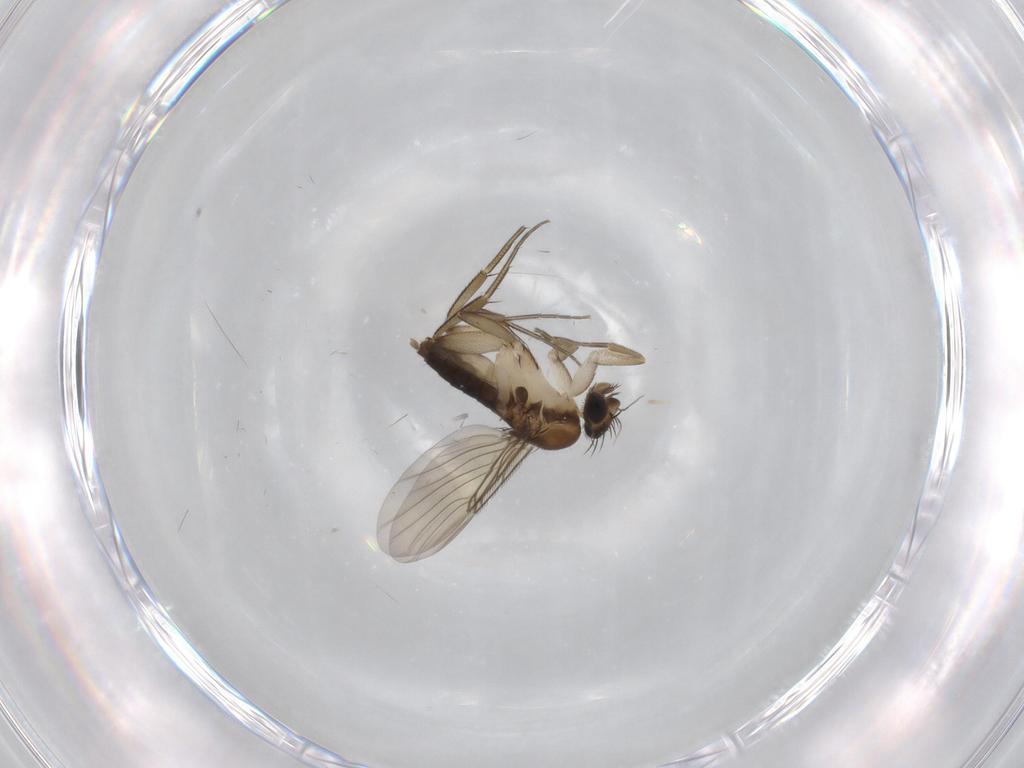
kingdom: Animalia
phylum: Arthropoda
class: Insecta
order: Diptera
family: Phoridae
